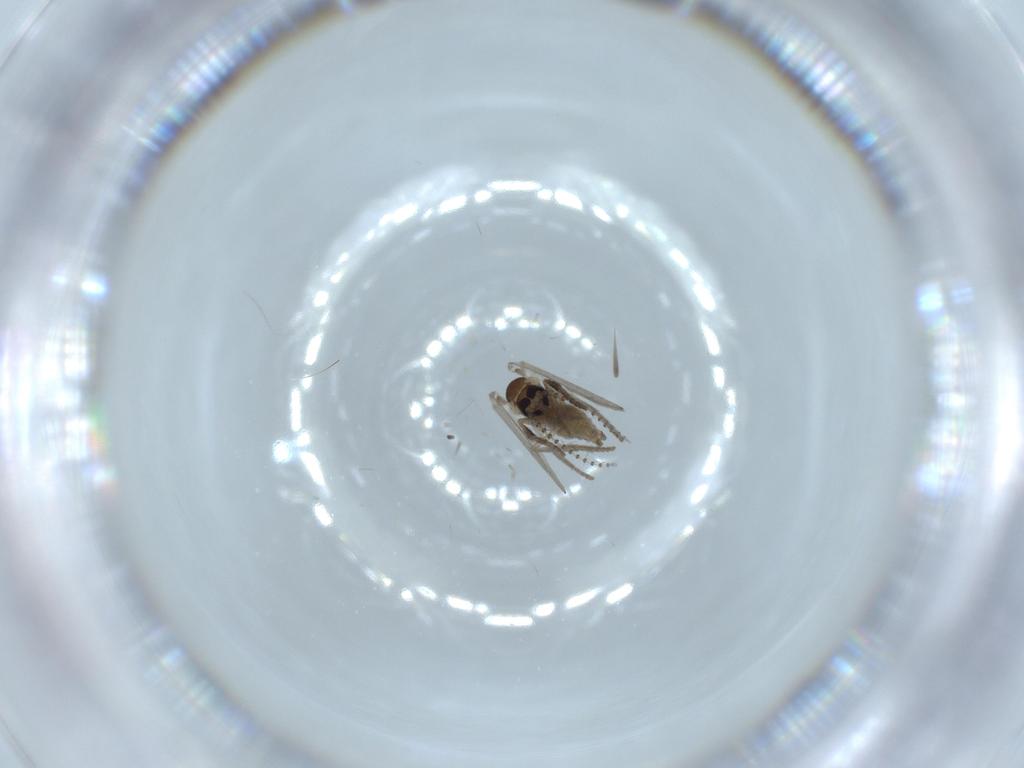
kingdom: Animalia
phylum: Arthropoda
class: Insecta
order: Diptera
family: Psychodidae
